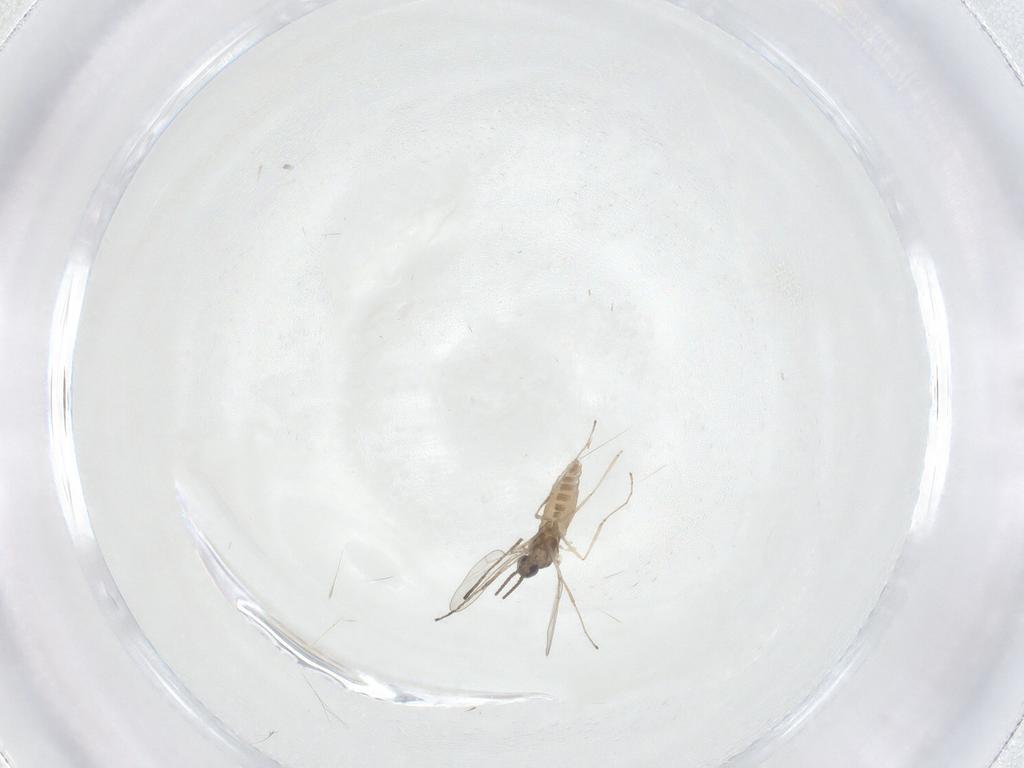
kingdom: Animalia
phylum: Arthropoda
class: Insecta
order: Diptera
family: Cecidomyiidae
